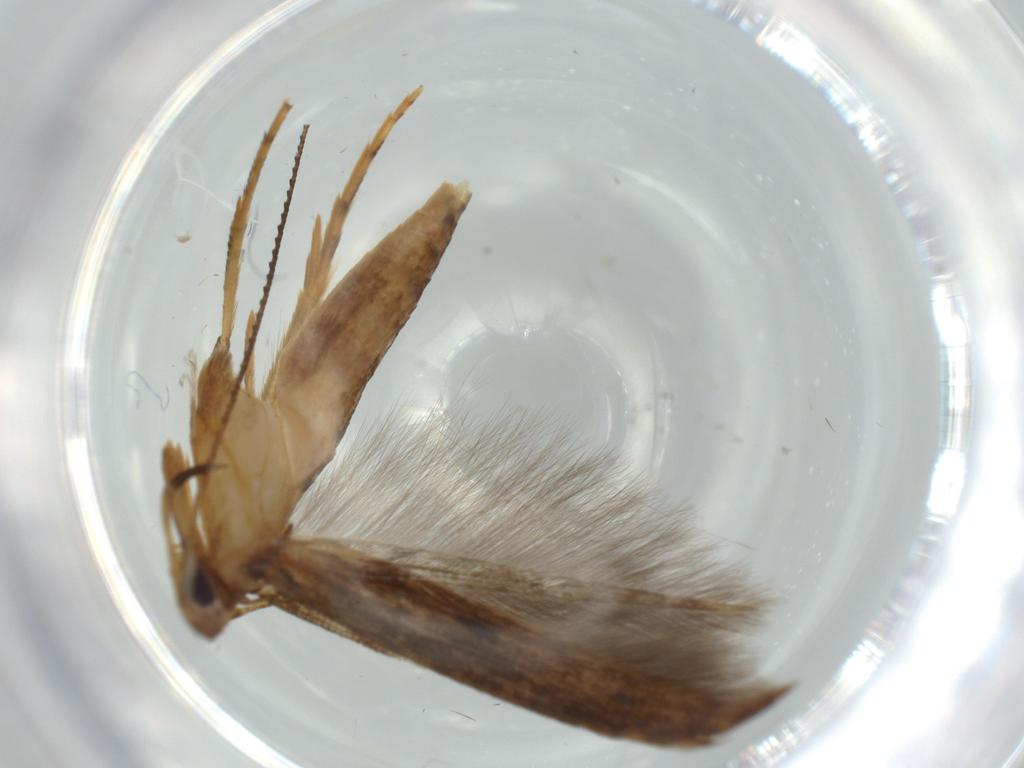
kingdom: Animalia
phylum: Arthropoda
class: Insecta
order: Lepidoptera
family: Heliodinidae
